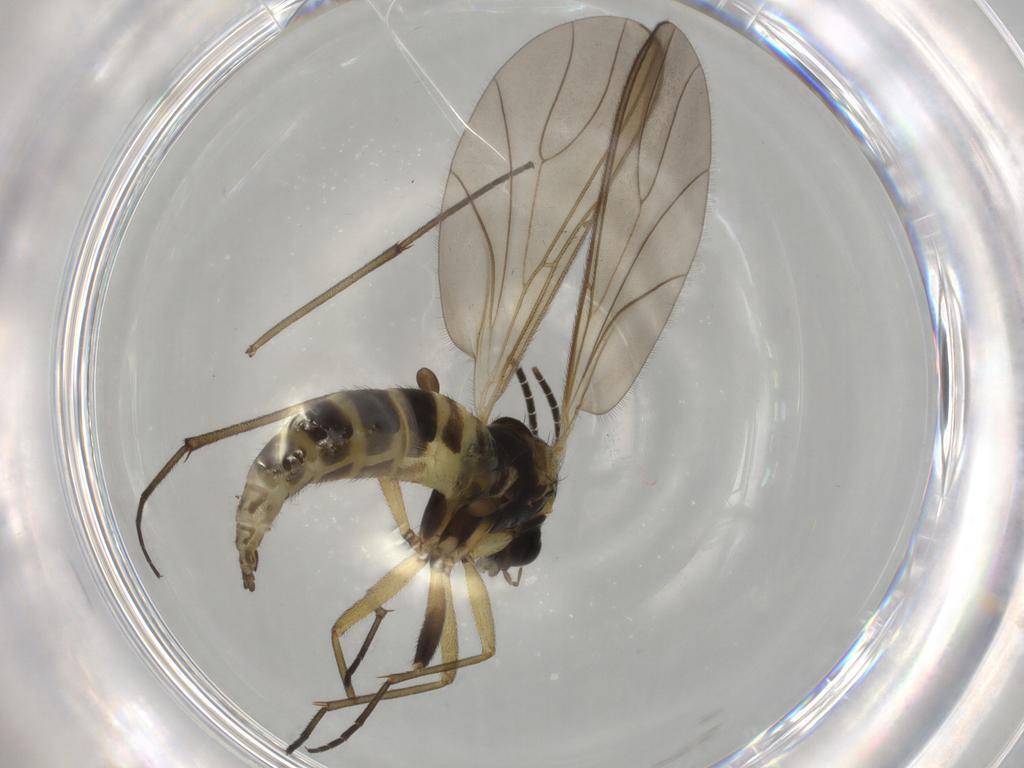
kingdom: Animalia
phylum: Arthropoda
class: Insecta
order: Diptera
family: Sciaridae
